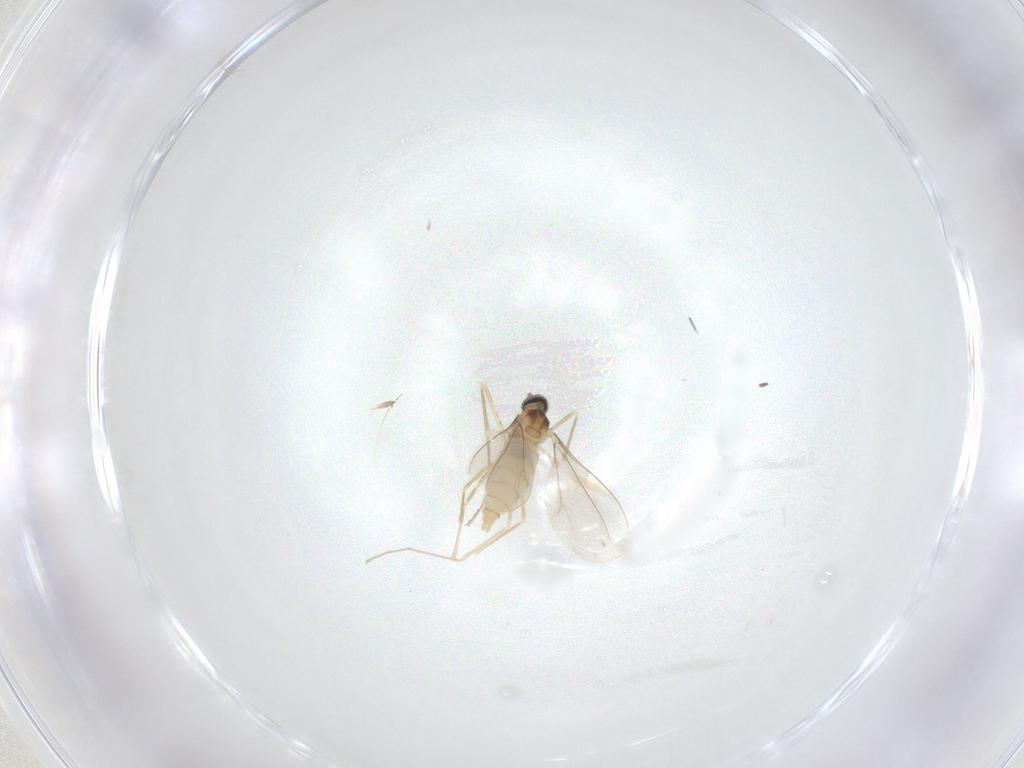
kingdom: Animalia
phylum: Arthropoda
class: Insecta
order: Diptera
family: Cecidomyiidae
